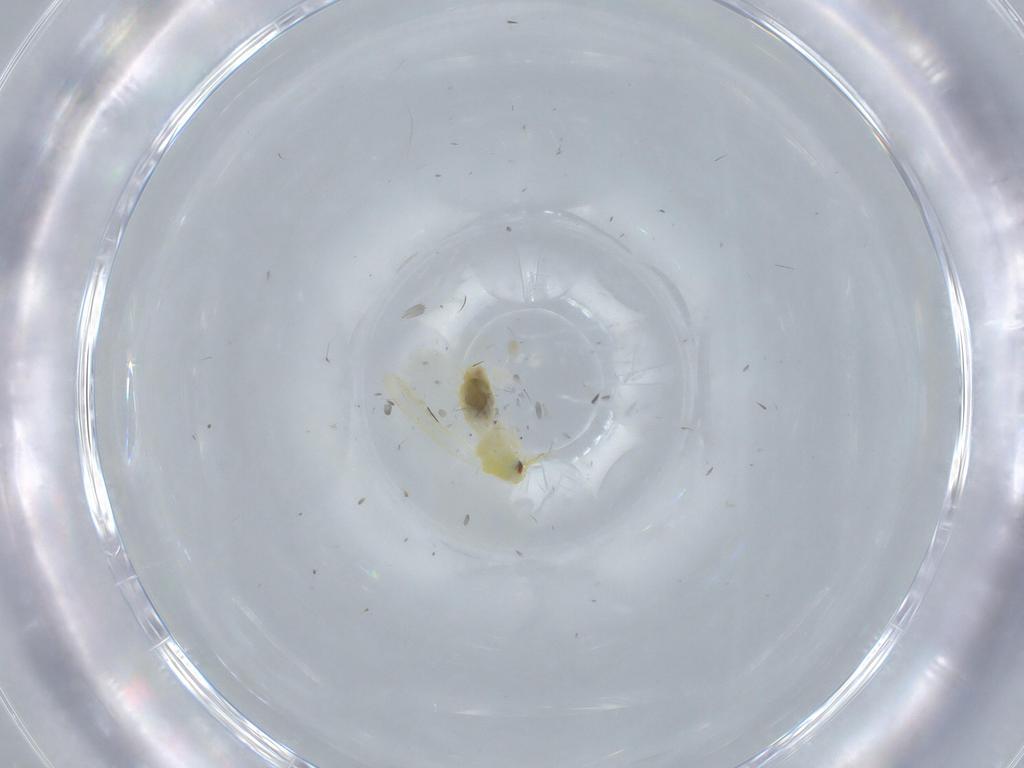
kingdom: Animalia
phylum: Arthropoda
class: Insecta
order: Hemiptera
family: Aleyrodidae
